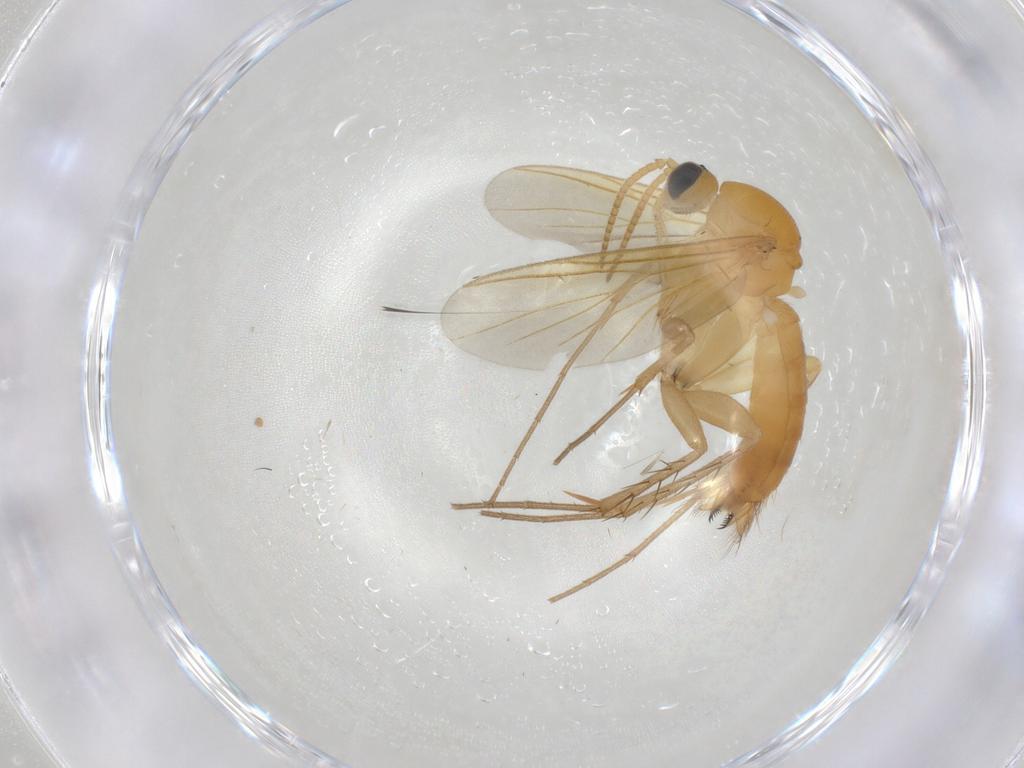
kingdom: Animalia
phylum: Arthropoda
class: Insecta
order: Diptera
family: Mycetophilidae
